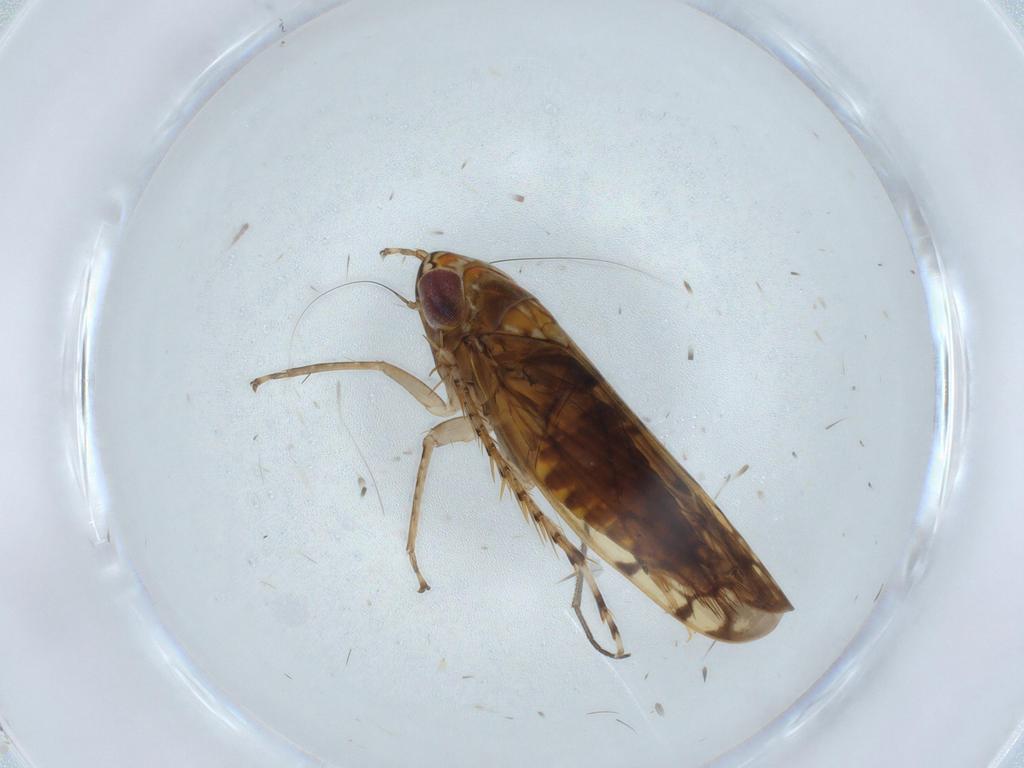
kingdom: Animalia
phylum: Arthropoda
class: Insecta
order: Hemiptera
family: Cicadellidae
